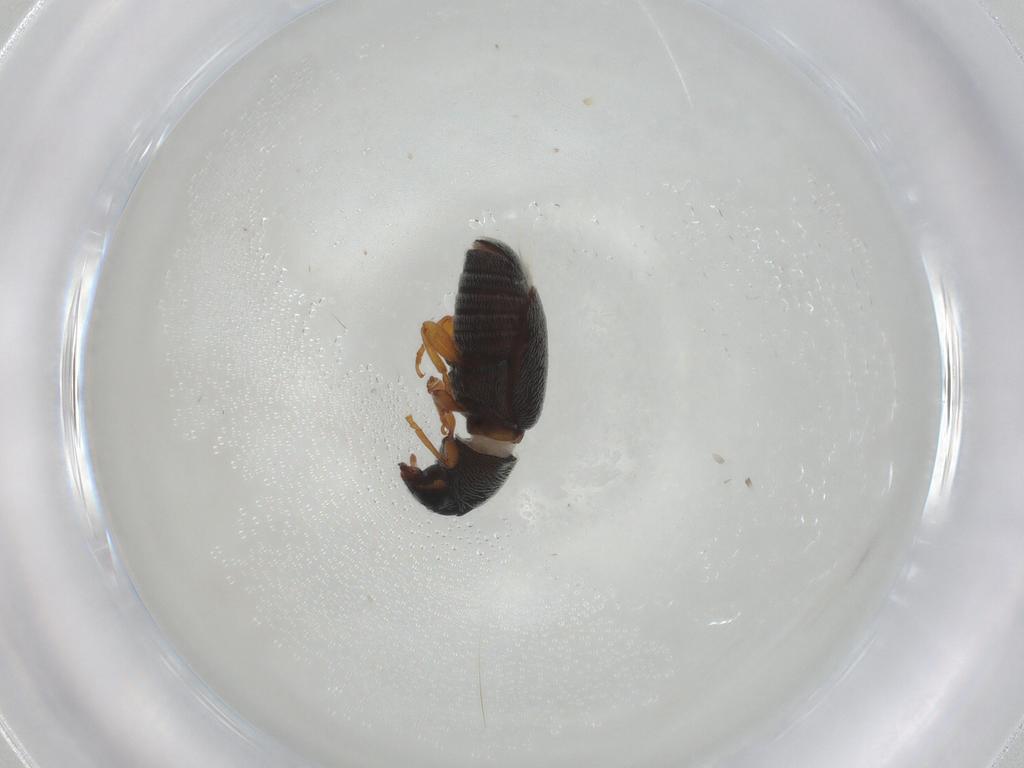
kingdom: Animalia
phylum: Arthropoda
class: Insecta
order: Coleoptera
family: Anthribidae
